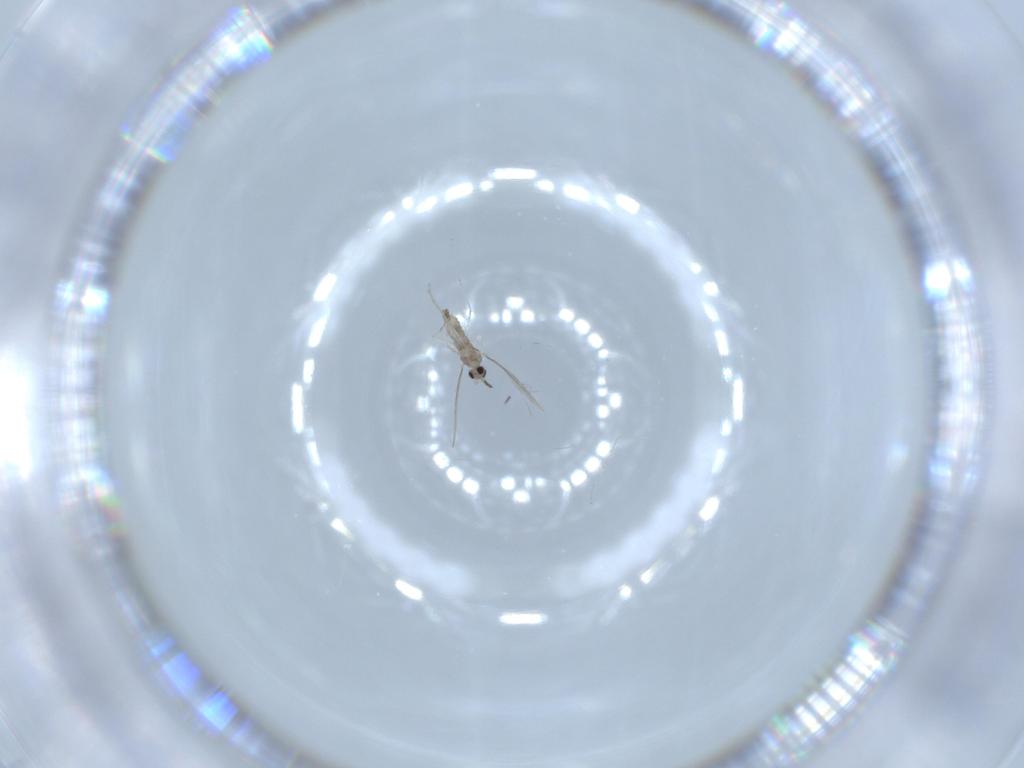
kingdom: Animalia
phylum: Arthropoda
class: Insecta
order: Diptera
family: Cecidomyiidae
